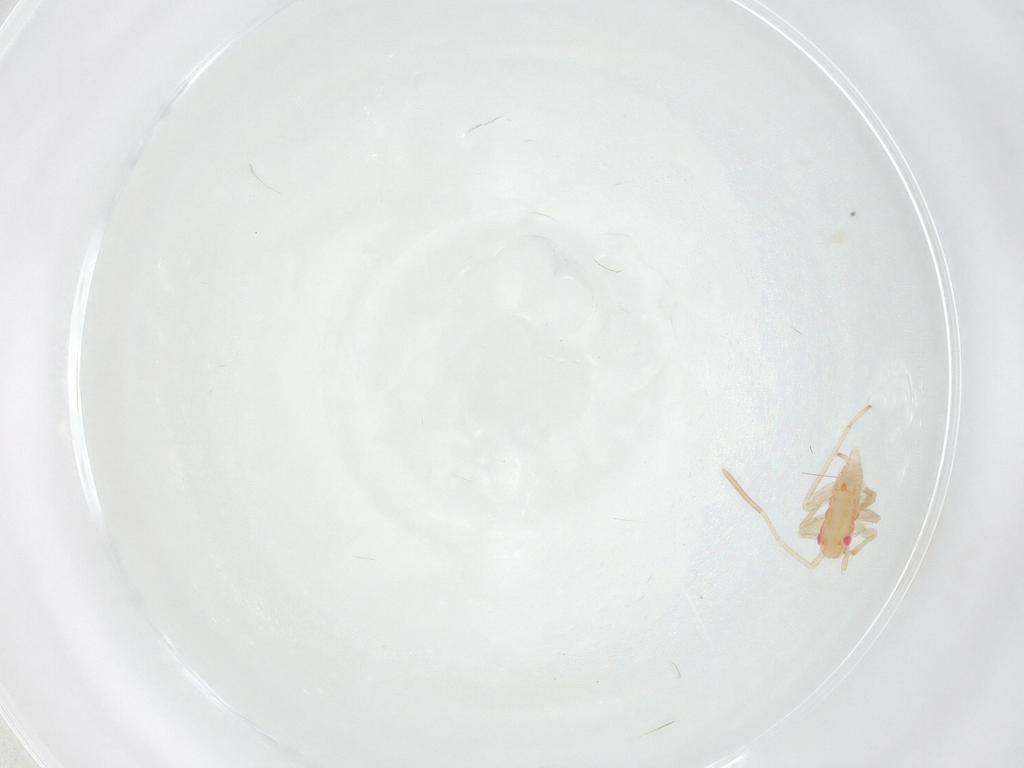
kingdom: Animalia
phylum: Arthropoda
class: Insecta
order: Hemiptera
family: Miridae
